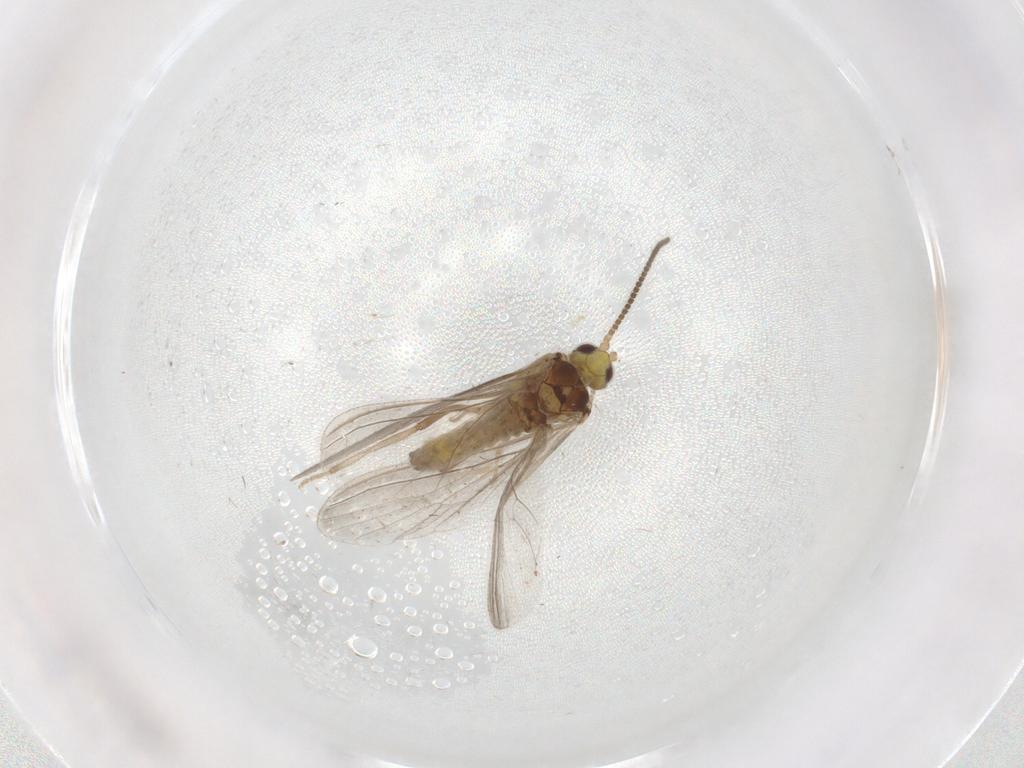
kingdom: Animalia
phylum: Arthropoda
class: Insecta
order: Neuroptera
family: Coniopterygidae
